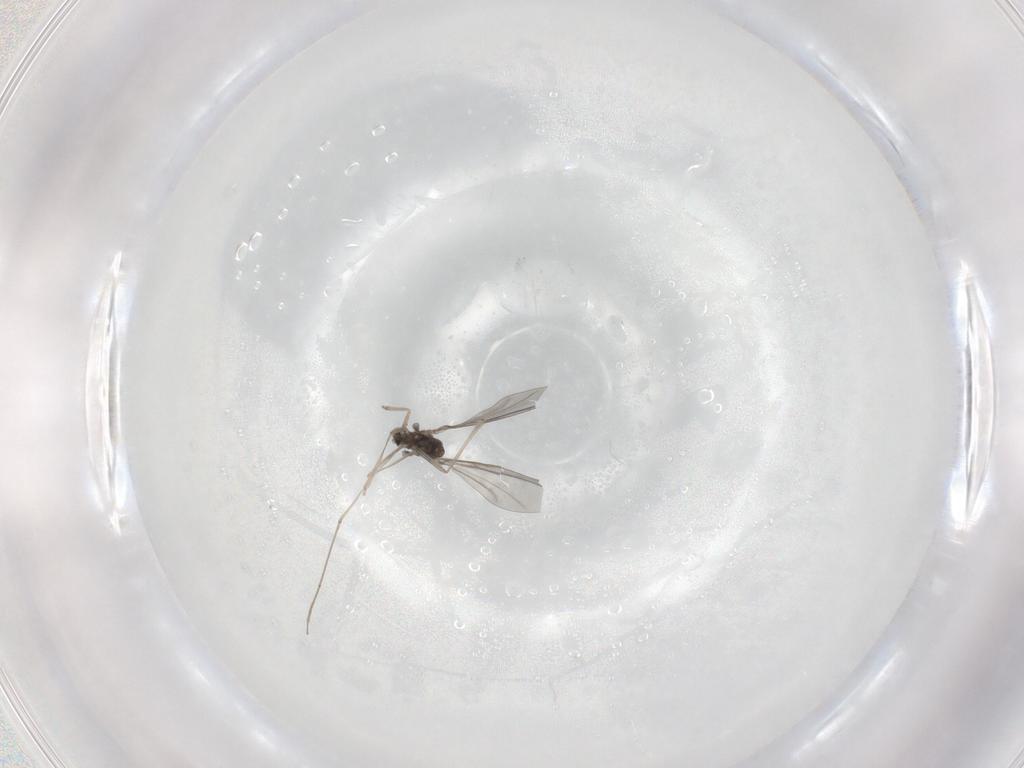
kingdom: Animalia
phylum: Arthropoda
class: Insecta
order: Diptera
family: Cecidomyiidae
